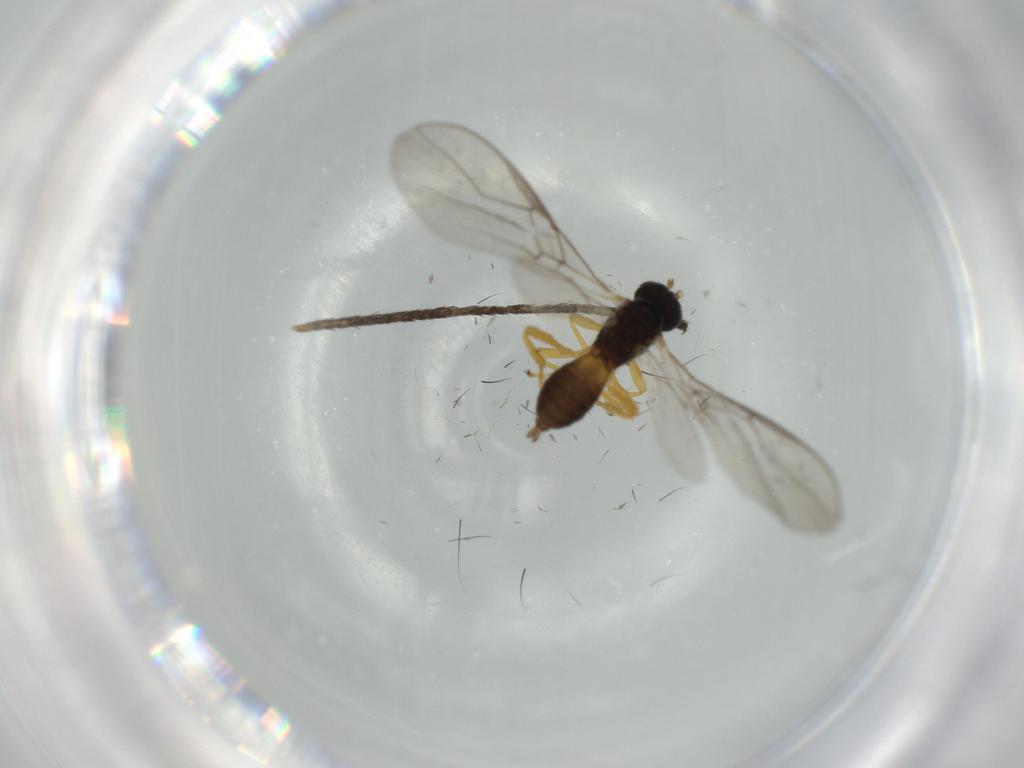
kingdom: Animalia
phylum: Arthropoda
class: Insecta
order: Hymenoptera
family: Braconidae
